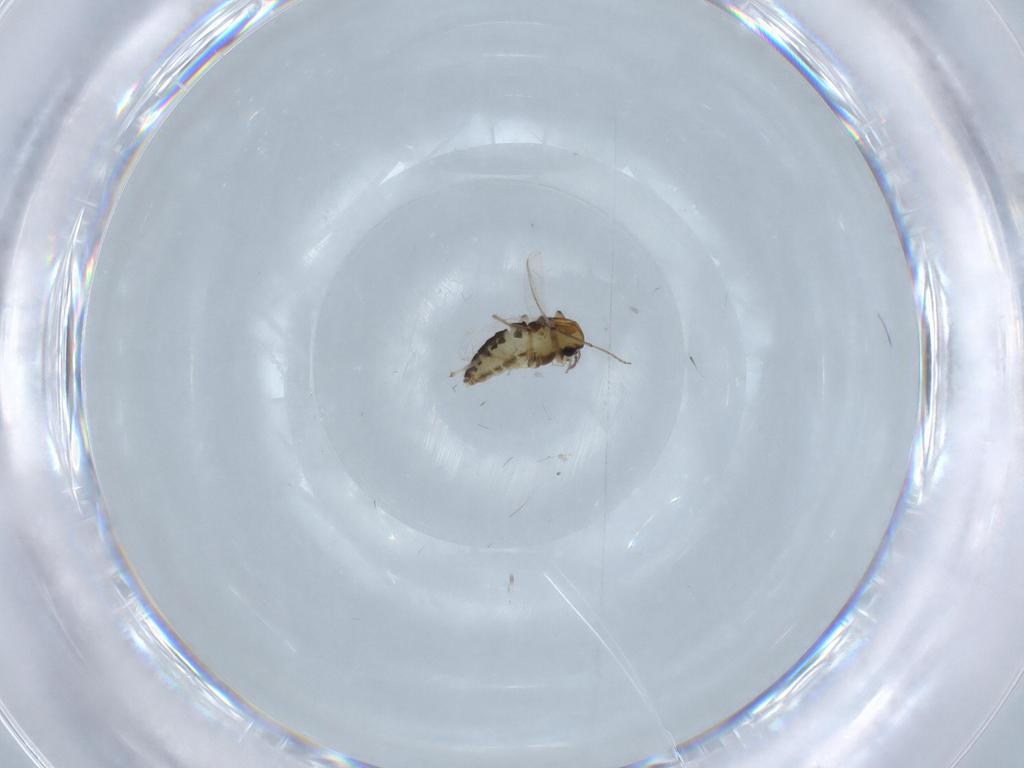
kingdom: Animalia
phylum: Arthropoda
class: Insecta
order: Diptera
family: Chironomidae
